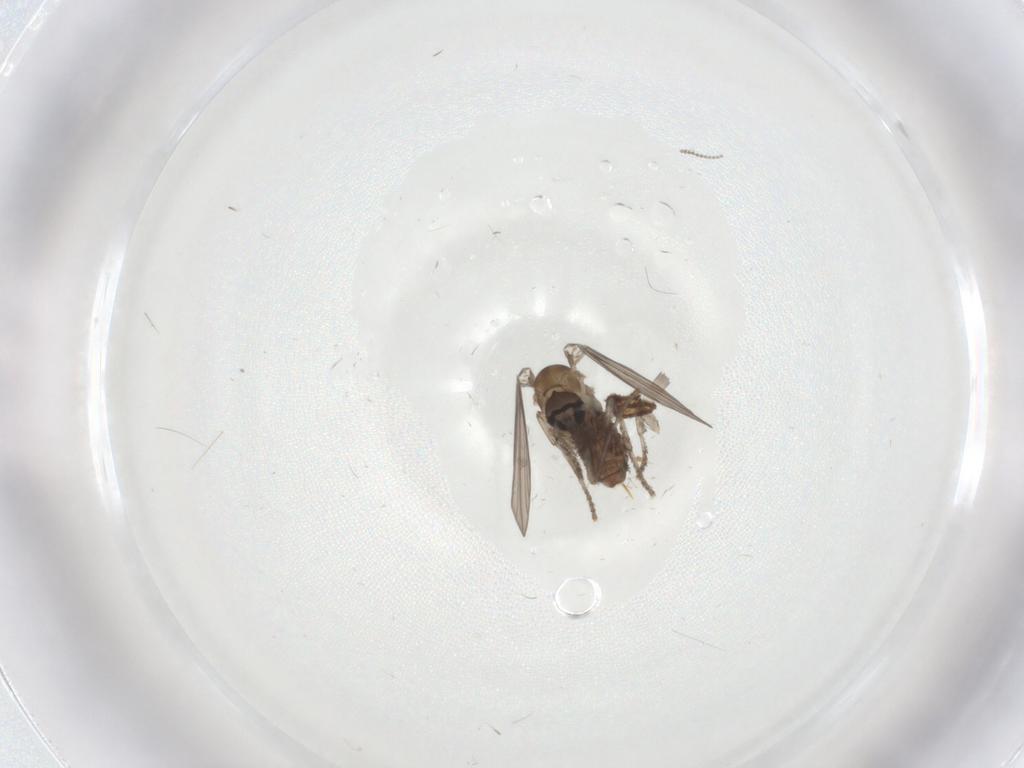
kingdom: Animalia
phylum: Arthropoda
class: Insecta
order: Diptera
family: Psychodidae
